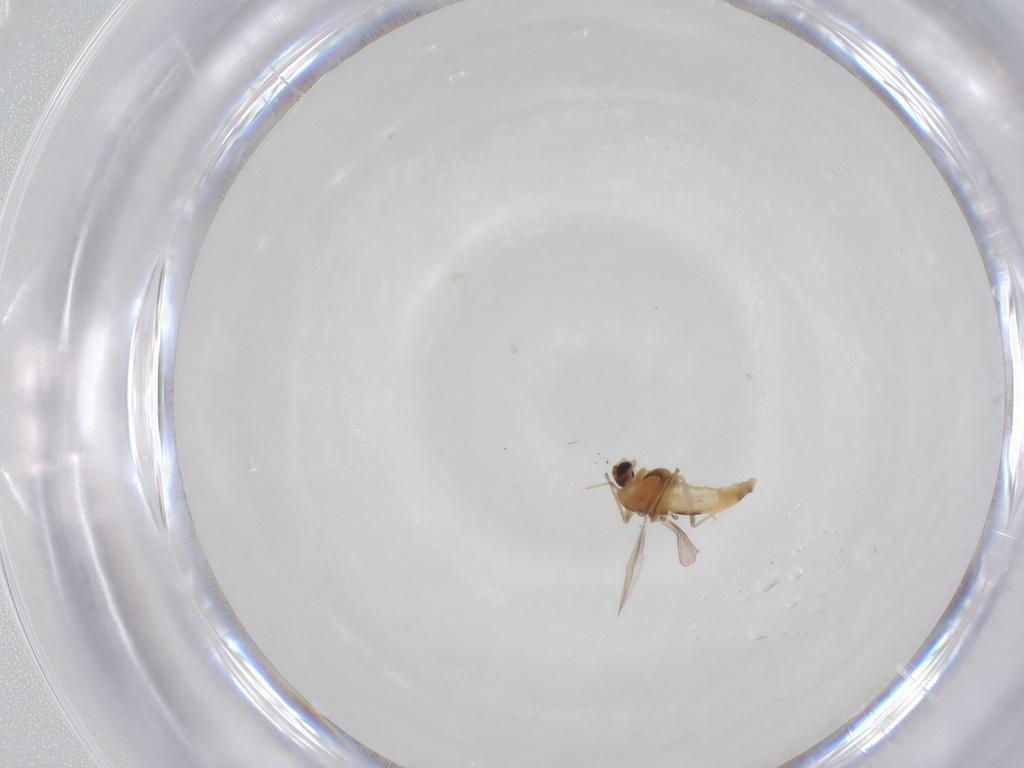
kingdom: Animalia
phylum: Arthropoda
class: Insecta
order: Diptera
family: Chironomidae
